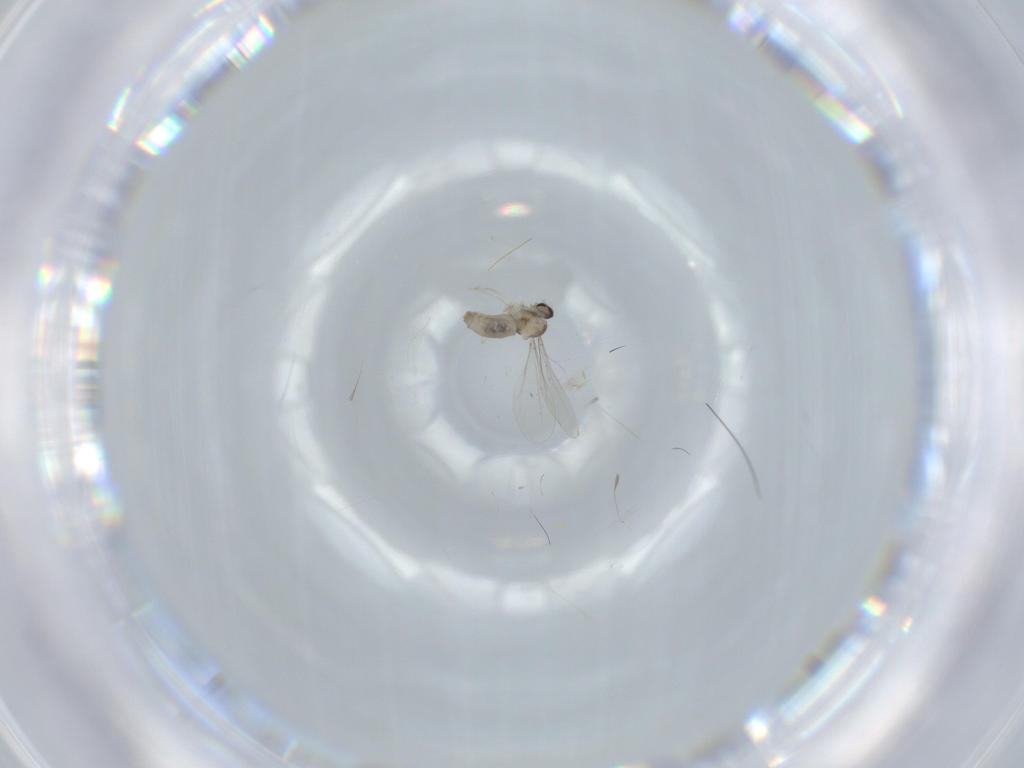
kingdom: Animalia
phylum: Arthropoda
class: Insecta
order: Diptera
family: Cecidomyiidae
